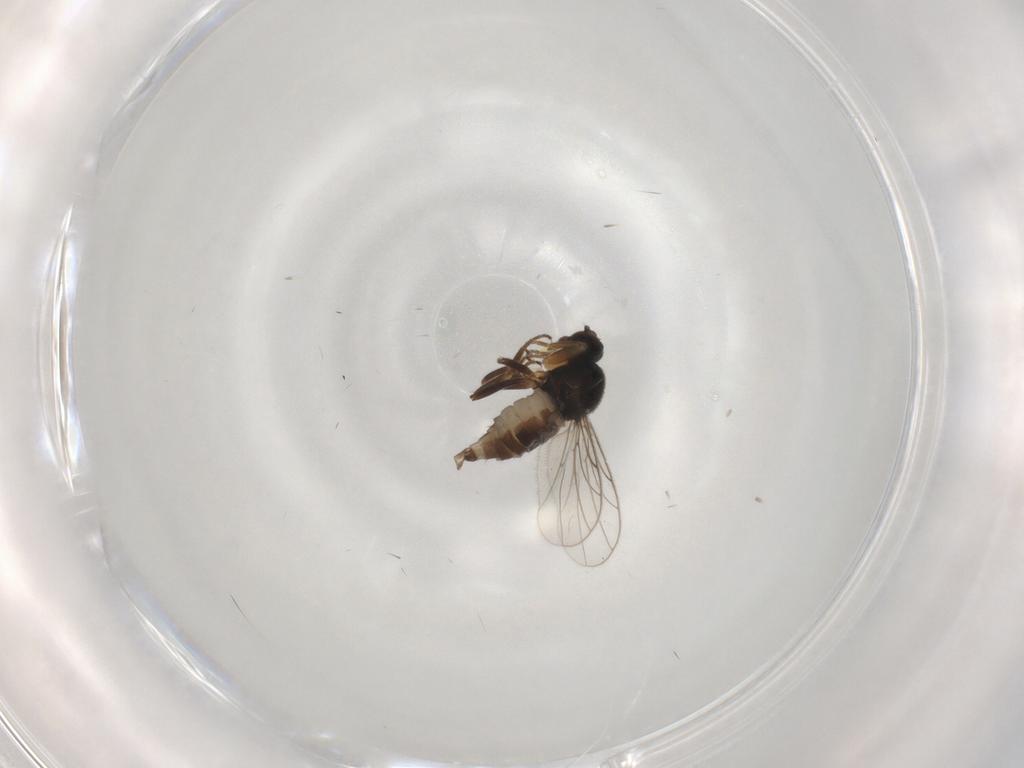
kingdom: Animalia
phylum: Arthropoda
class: Insecta
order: Diptera
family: Hybotidae
